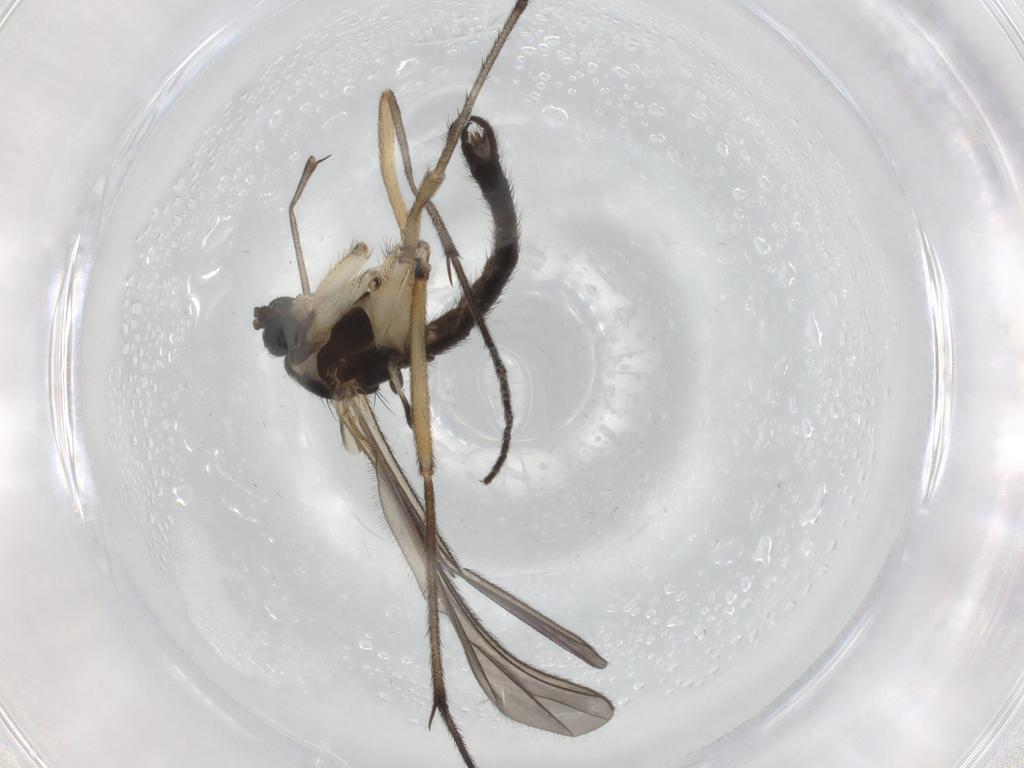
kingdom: Animalia
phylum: Arthropoda
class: Insecta
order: Diptera
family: Sciaridae
